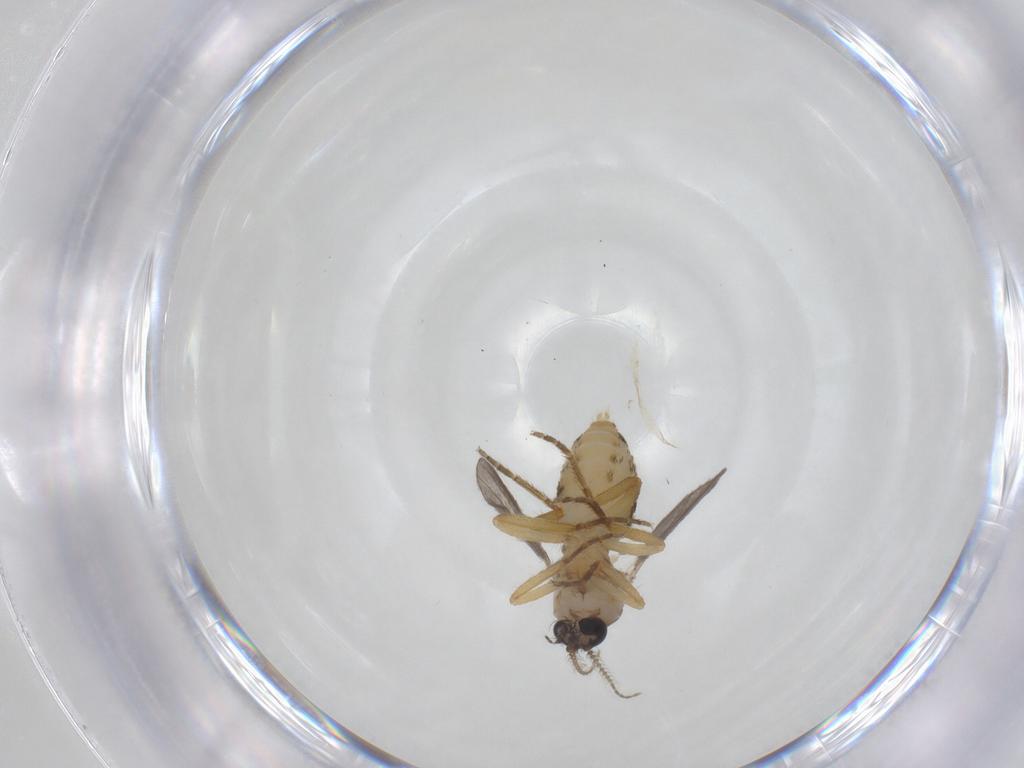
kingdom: Animalia
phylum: Arthropoda
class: Insecta
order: Diptera
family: Ceratopogonidae
